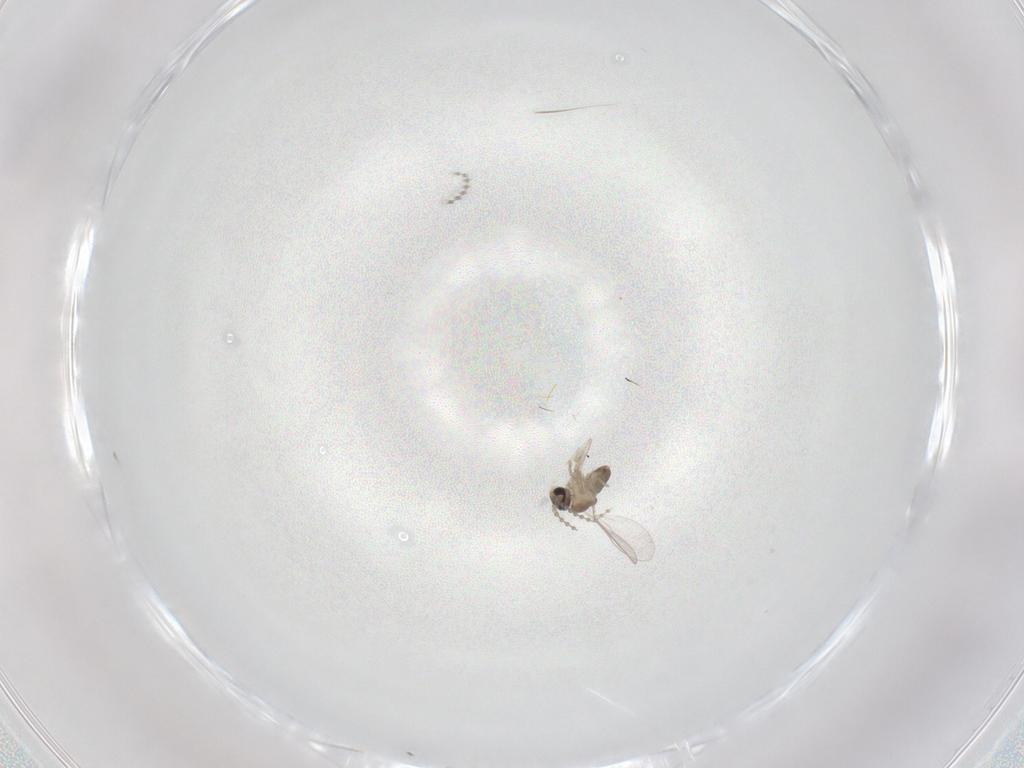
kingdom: Animalia
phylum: Arthropoda
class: Insecta
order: Diptera
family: Cecidomyiidae
